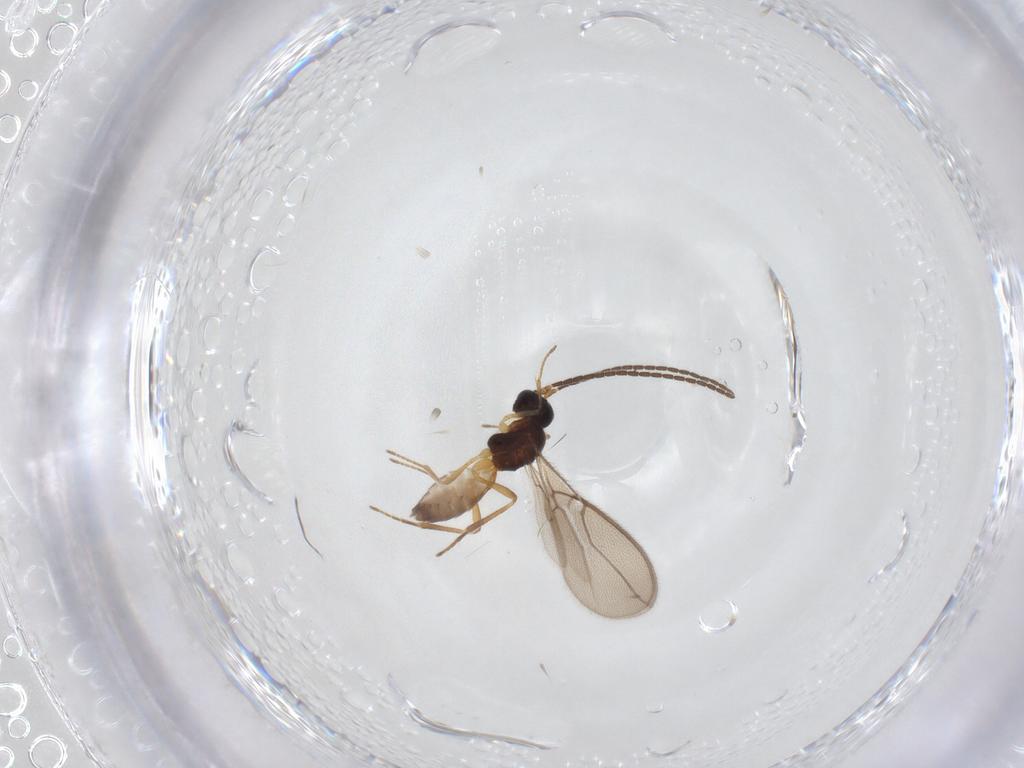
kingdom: Animalia
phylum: Arthropoda
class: Insecta
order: Hymenoptera
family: Braconidae
